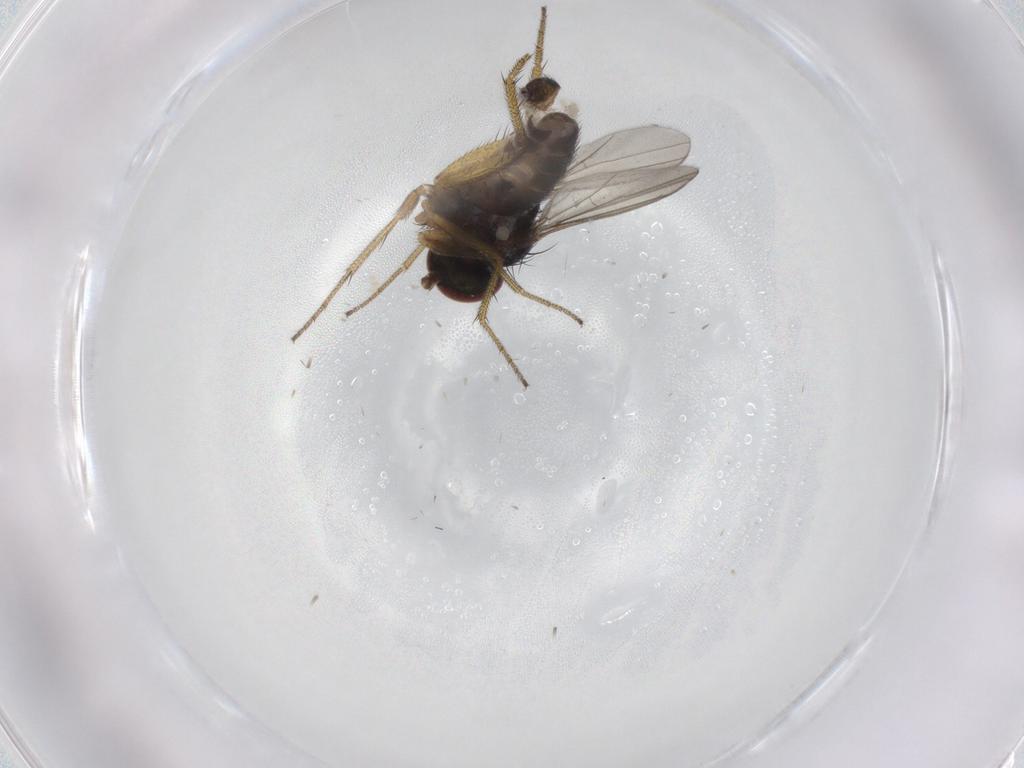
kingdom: Animalia
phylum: Arthropoda
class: Insecta
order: Diptera
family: Muscidae
